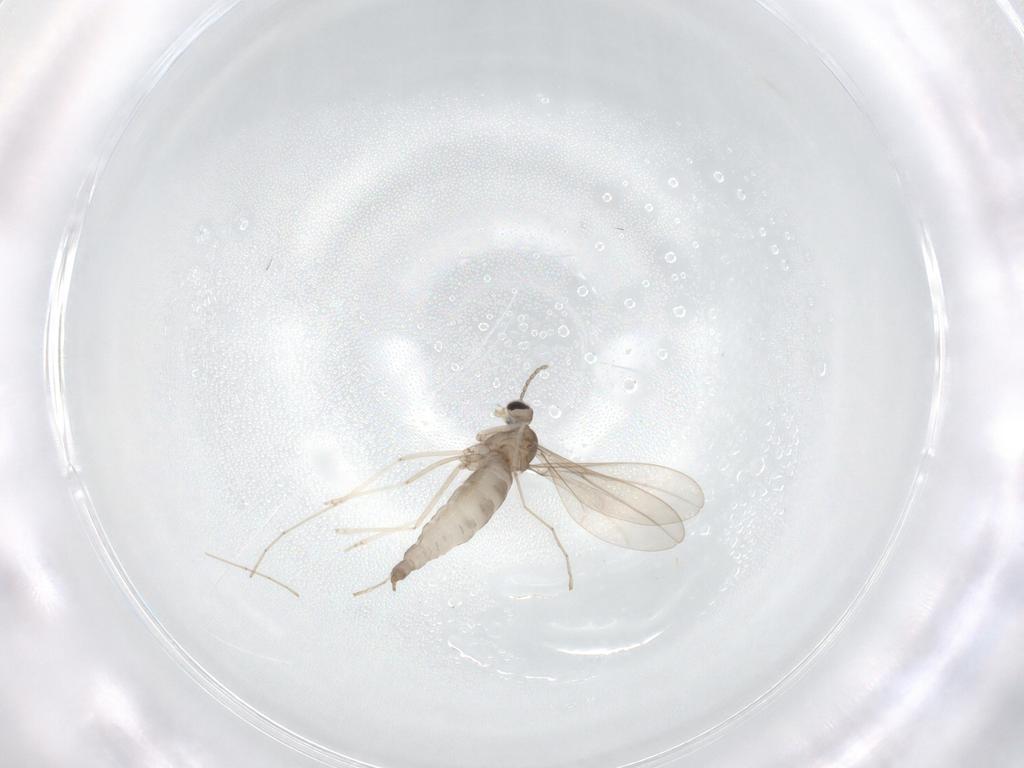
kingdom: Animalia
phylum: Arthropoda
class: Insecta
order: Diptera
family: Cecidomyiidae
